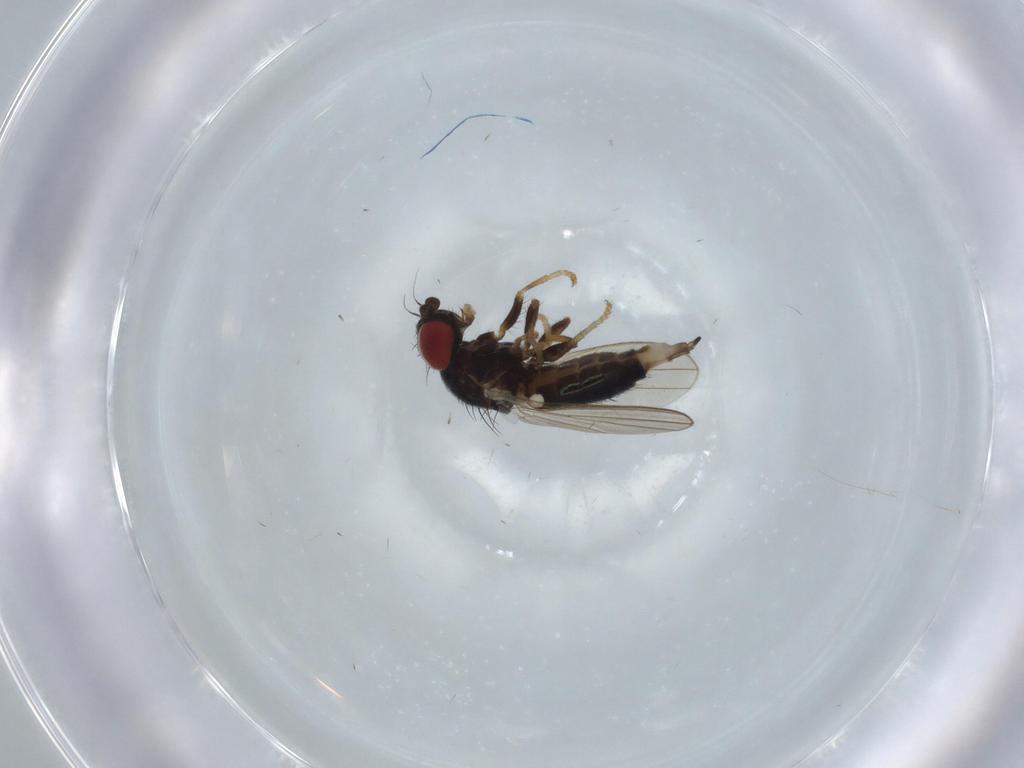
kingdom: Animalia
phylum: Arthropoda
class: Insecta
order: Diptera
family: Chamaemyiidae
